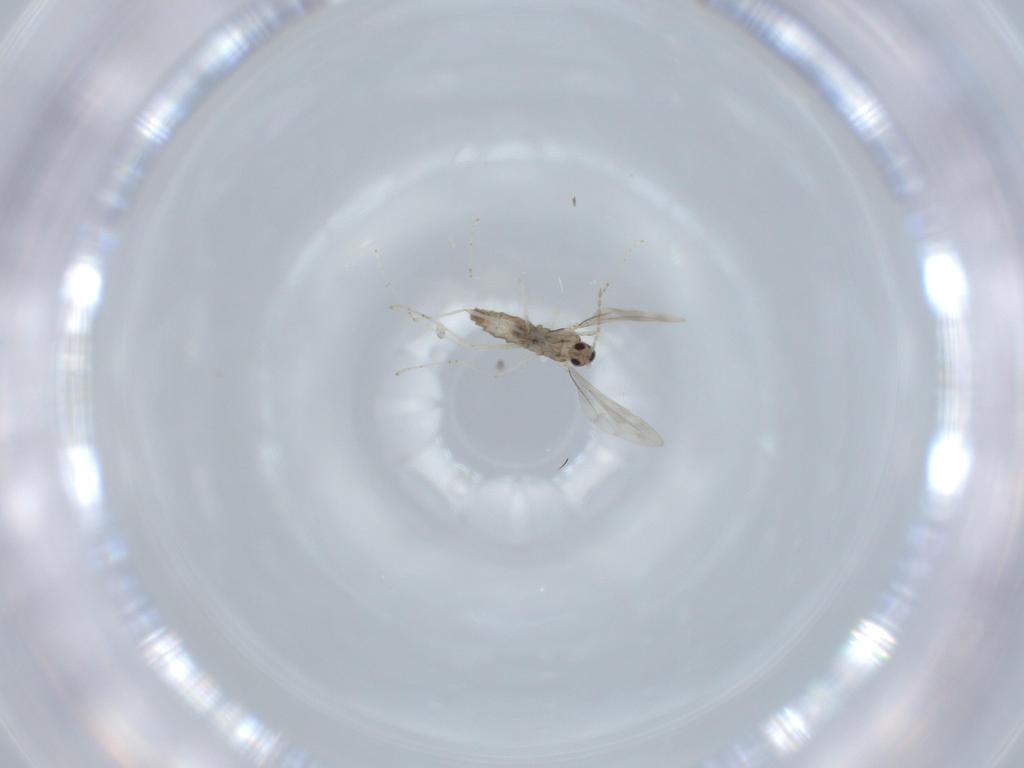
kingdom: Animalia
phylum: Arthropoda
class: Insecta
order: Diptera
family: Cecidomyiidae
